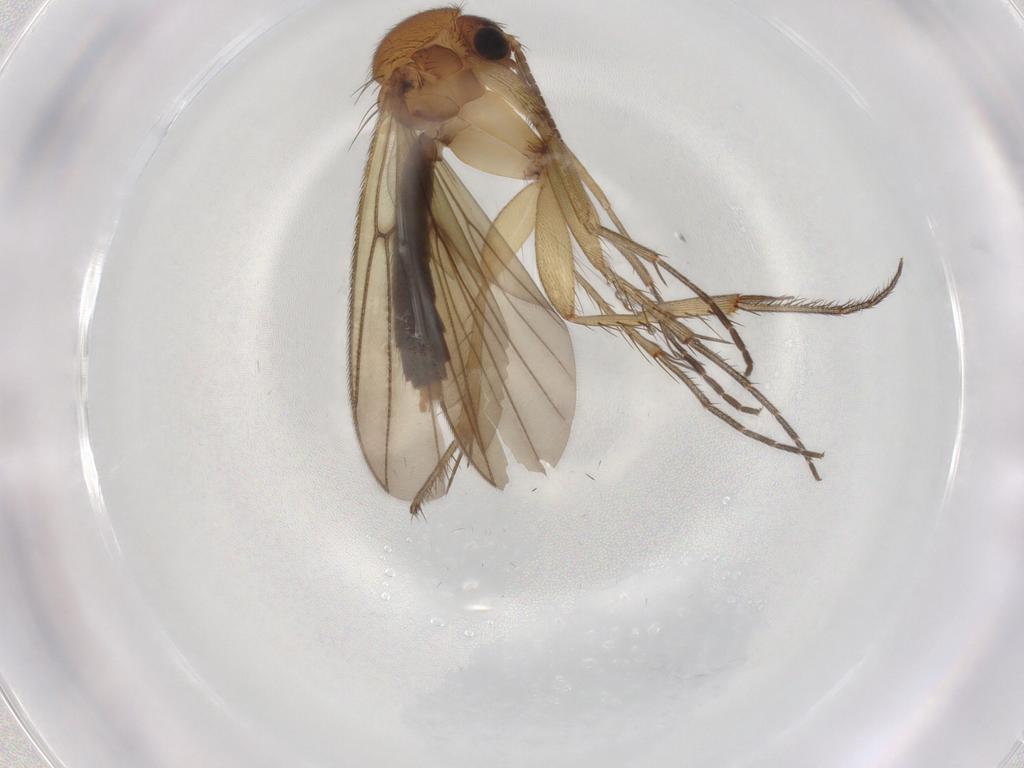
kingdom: Animalia
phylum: Arthropoda
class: Insecta
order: Diptera
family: Mycetophilidae
